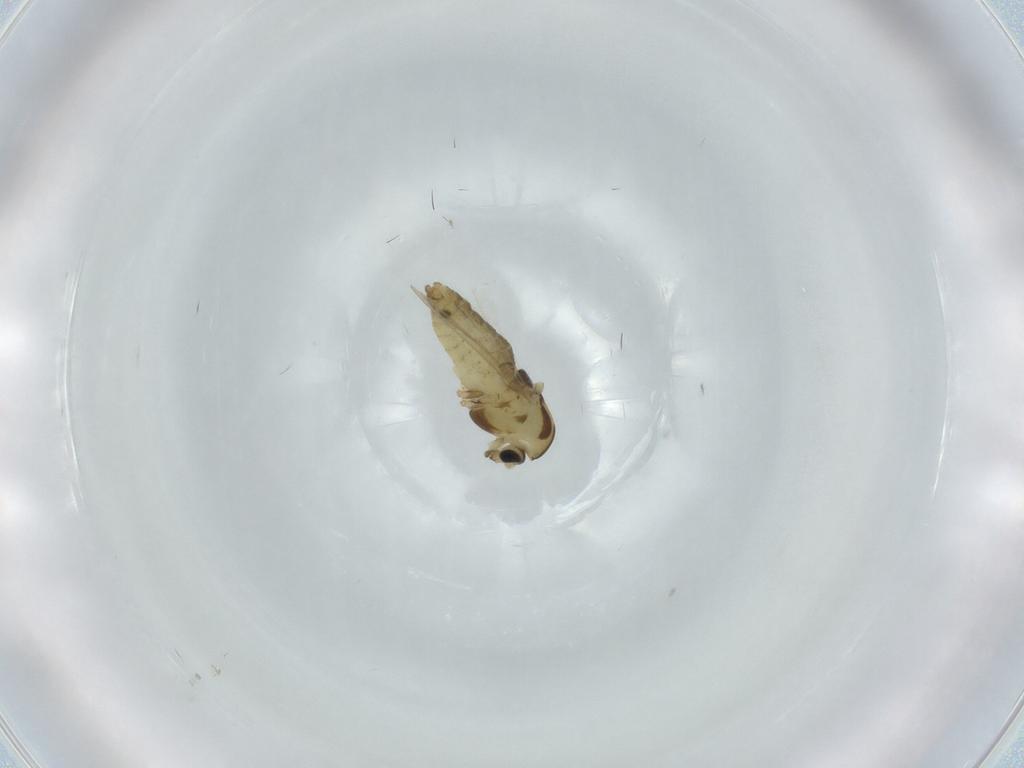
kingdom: Animalia
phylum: Arthropoda
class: Insecta
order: Diptera
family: Chironomidae
